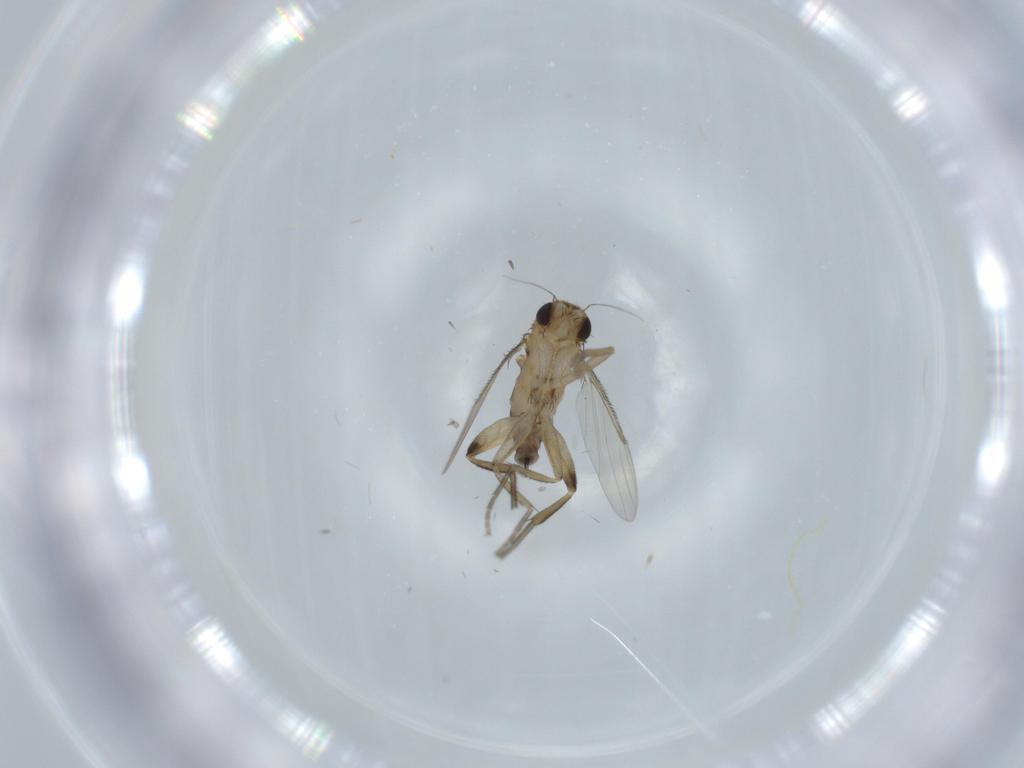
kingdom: Animalia
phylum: Arthropoda
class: Insecta
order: Diptera
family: Phoridae
